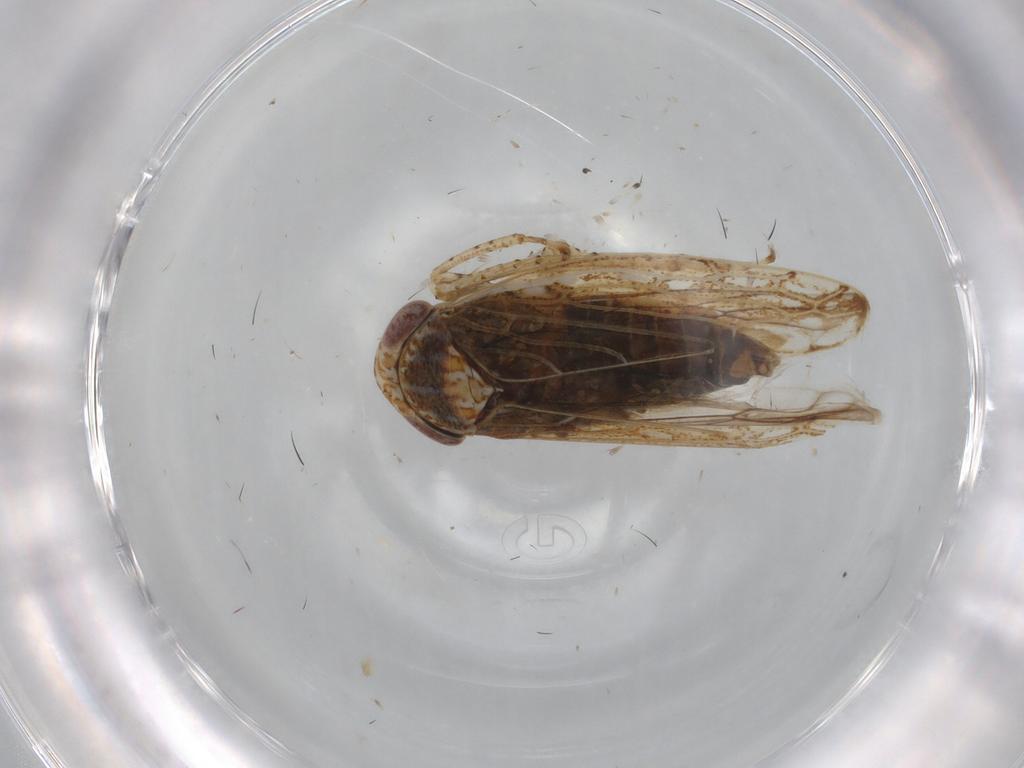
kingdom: Animalia
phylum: Arthropoda
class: Insecta
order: Hemiptera
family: Cicadellidae
